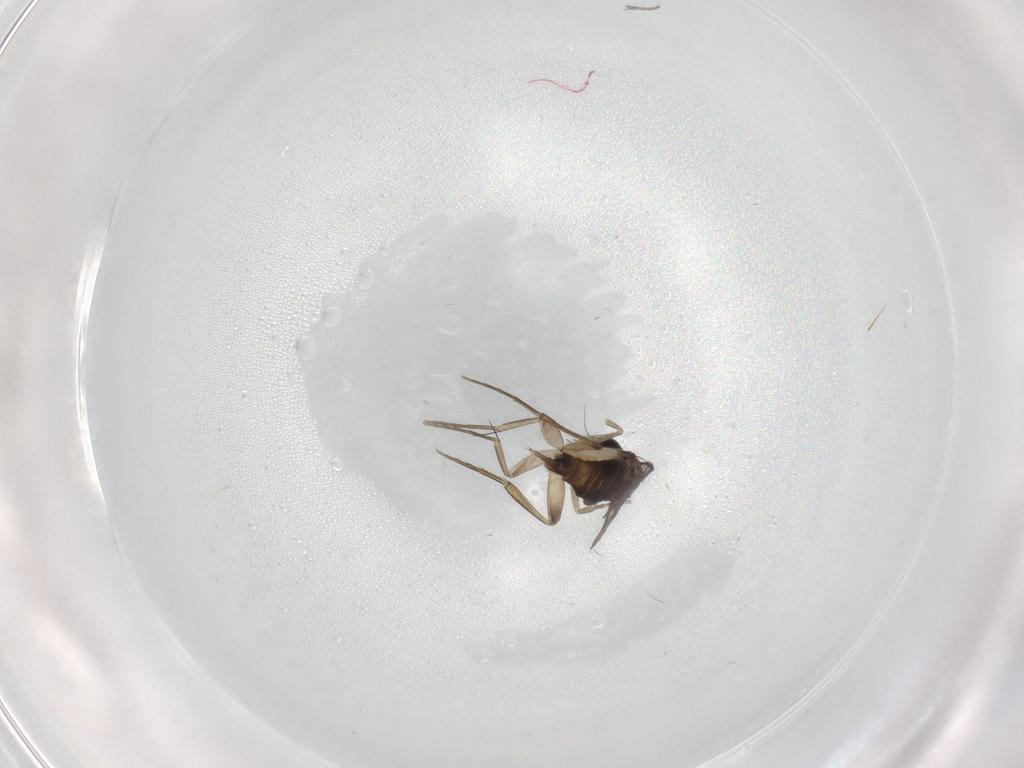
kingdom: Animalia
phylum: Arthropoda
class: Insecta
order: Diptera
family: Phoridae
